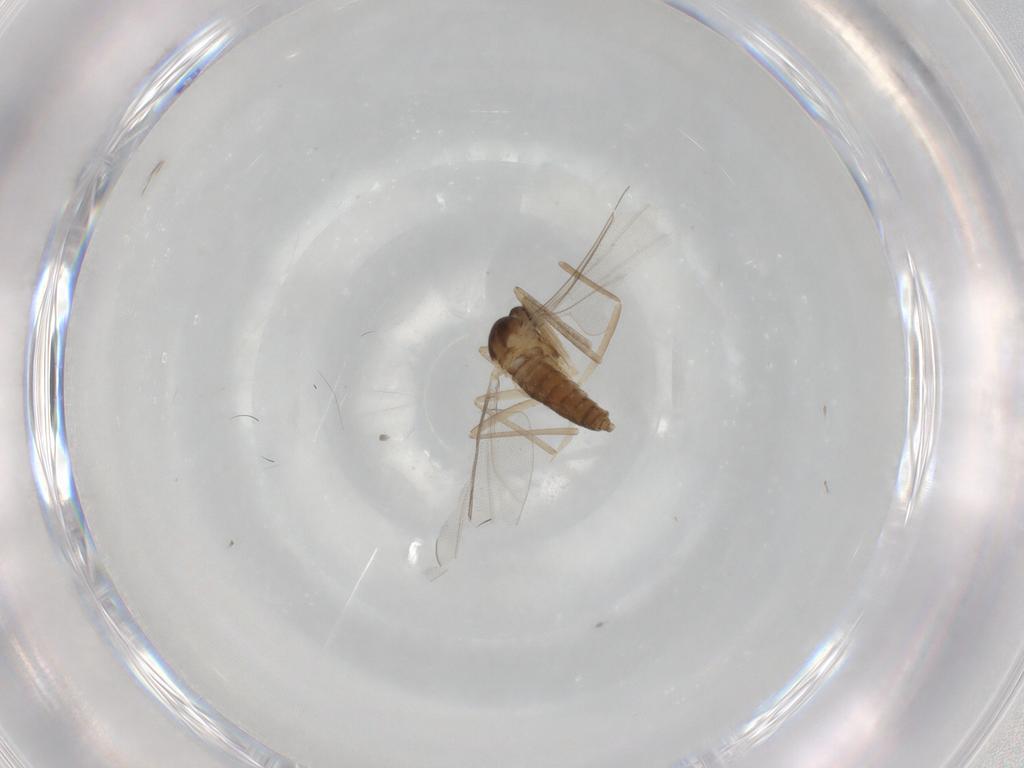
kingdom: Animalia
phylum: Arthropoda
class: Insecta
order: Diptera
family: Cecidomyiidae
